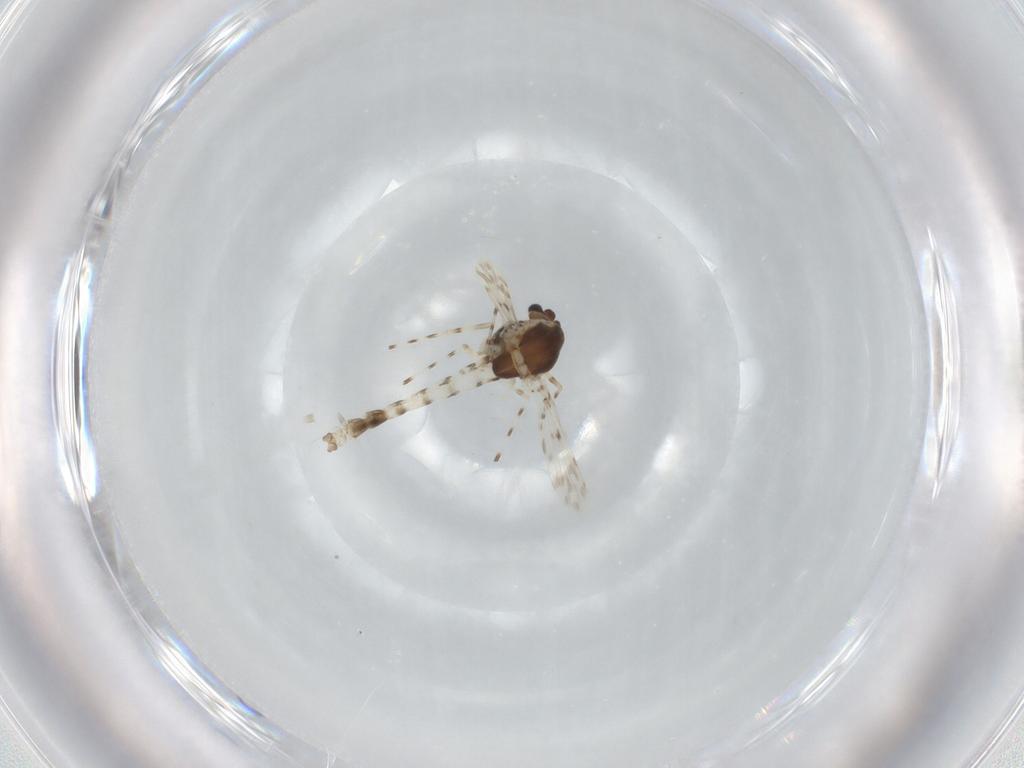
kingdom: Animalia
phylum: Arthropoda
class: Insecta
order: Diptera
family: Chironomidae
